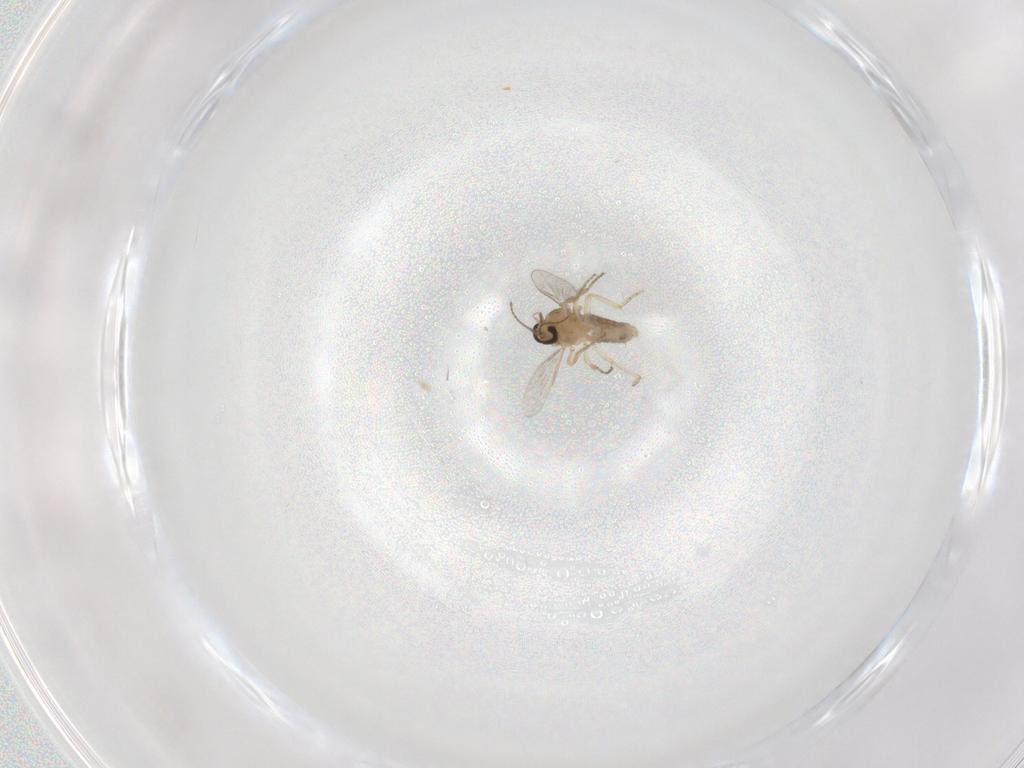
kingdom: Animalia
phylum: Arthropoda
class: Insecta
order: Diptera
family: Ceratopogonidae
